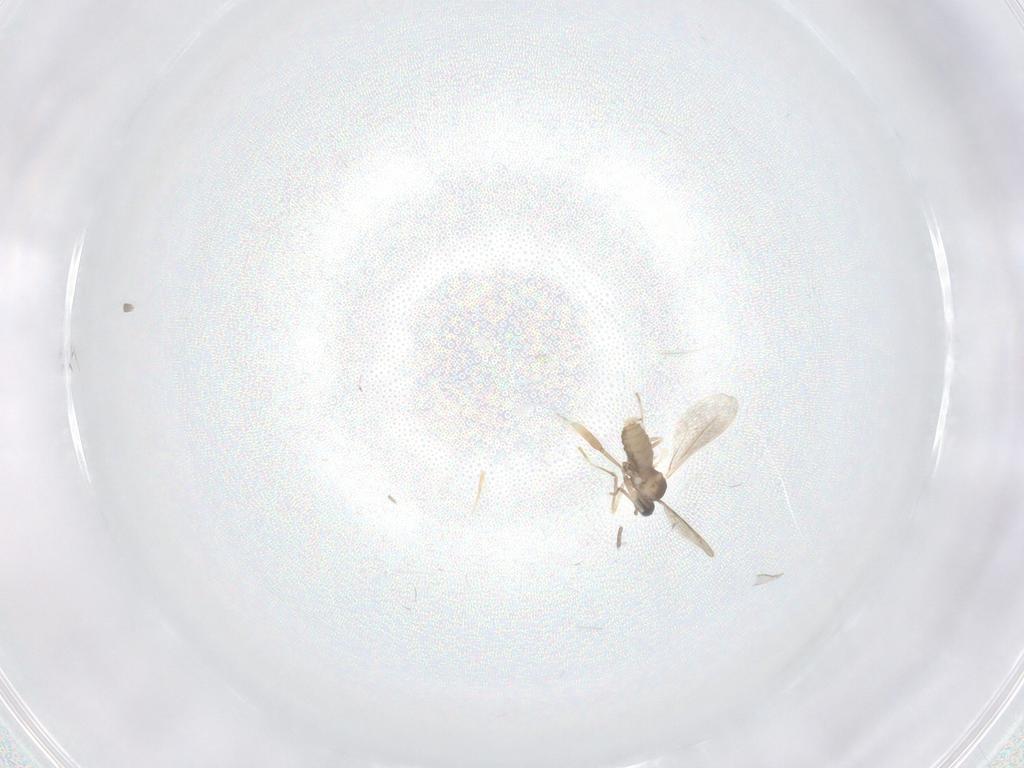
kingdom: Animalia
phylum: Arthropoda
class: Insecta
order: Diptera
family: Cecidomyiidae
